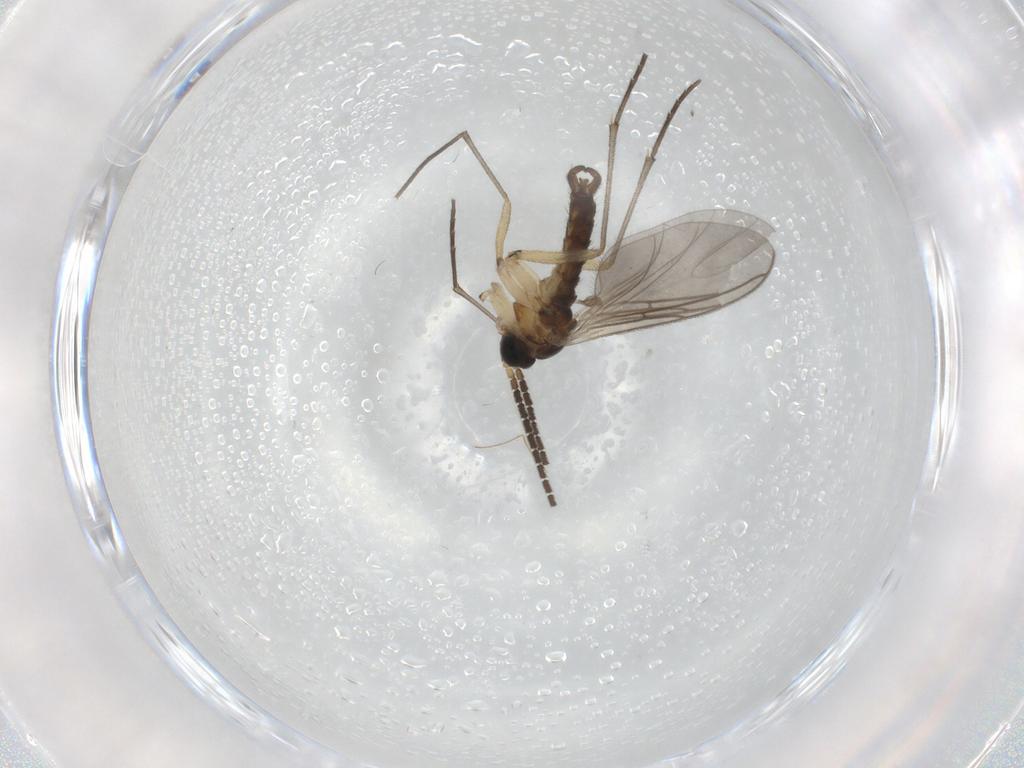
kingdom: Animalia
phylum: Arthropoda
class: Insecta
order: Diptera
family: Sciaridae
